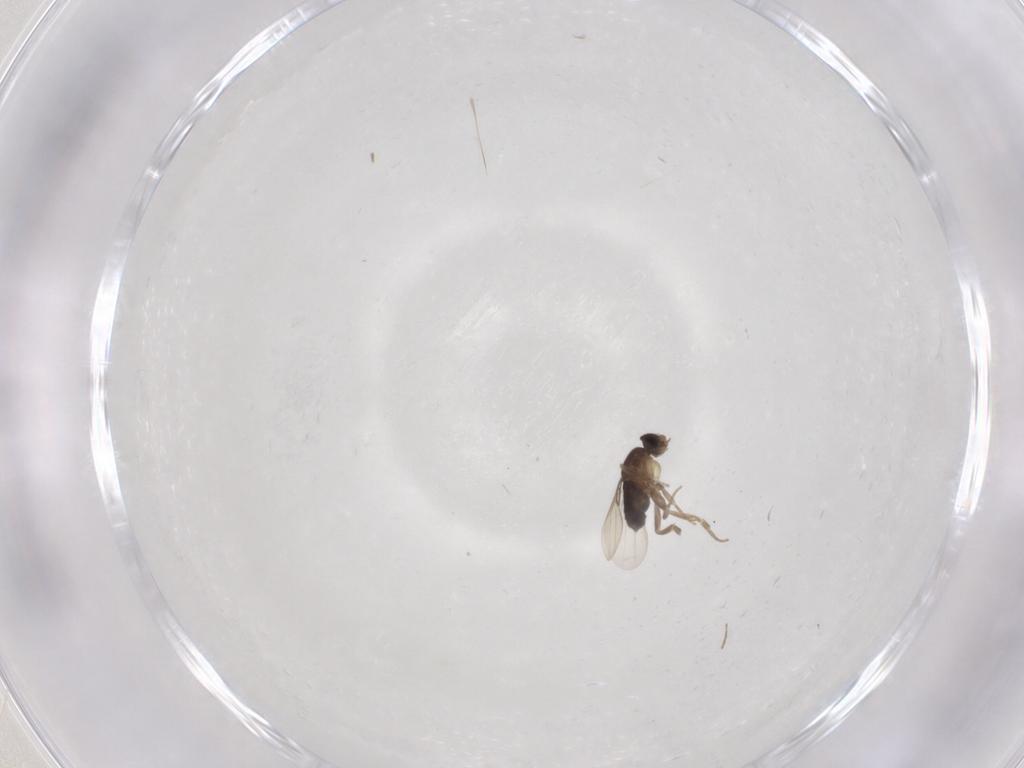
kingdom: Animalia
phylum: Arthropoda
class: Insecta
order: Diptera
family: Phoridae
